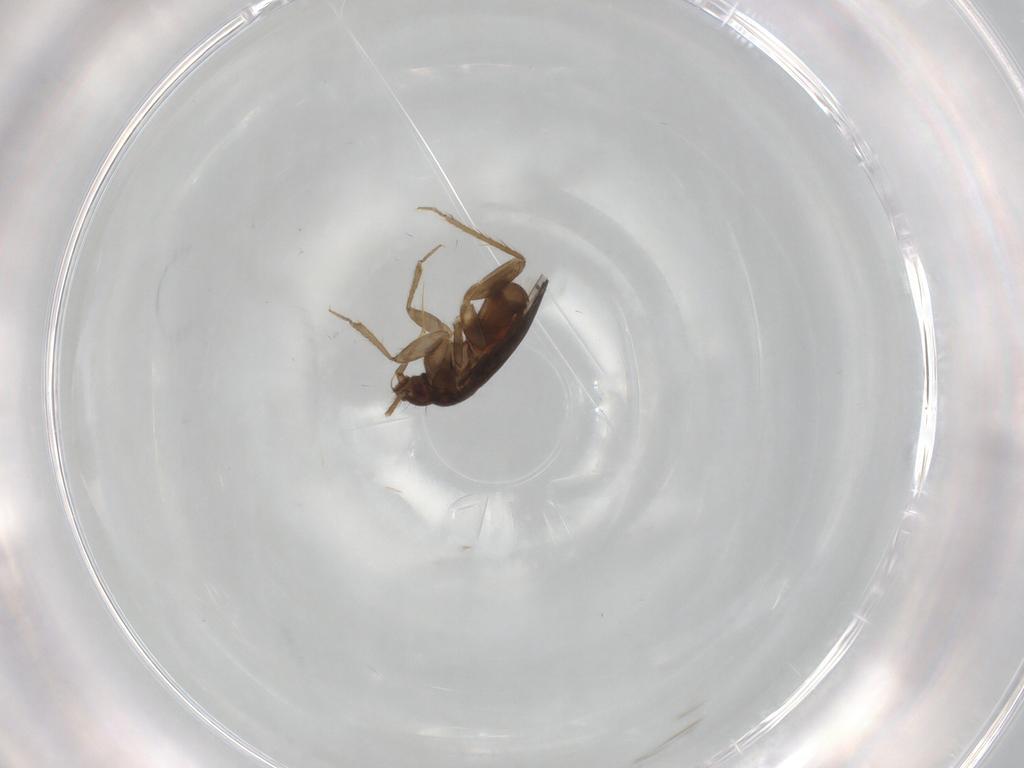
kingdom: Animalia
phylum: Arthropoda
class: Insecta
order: Hemiptera
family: Ceratocombidae
